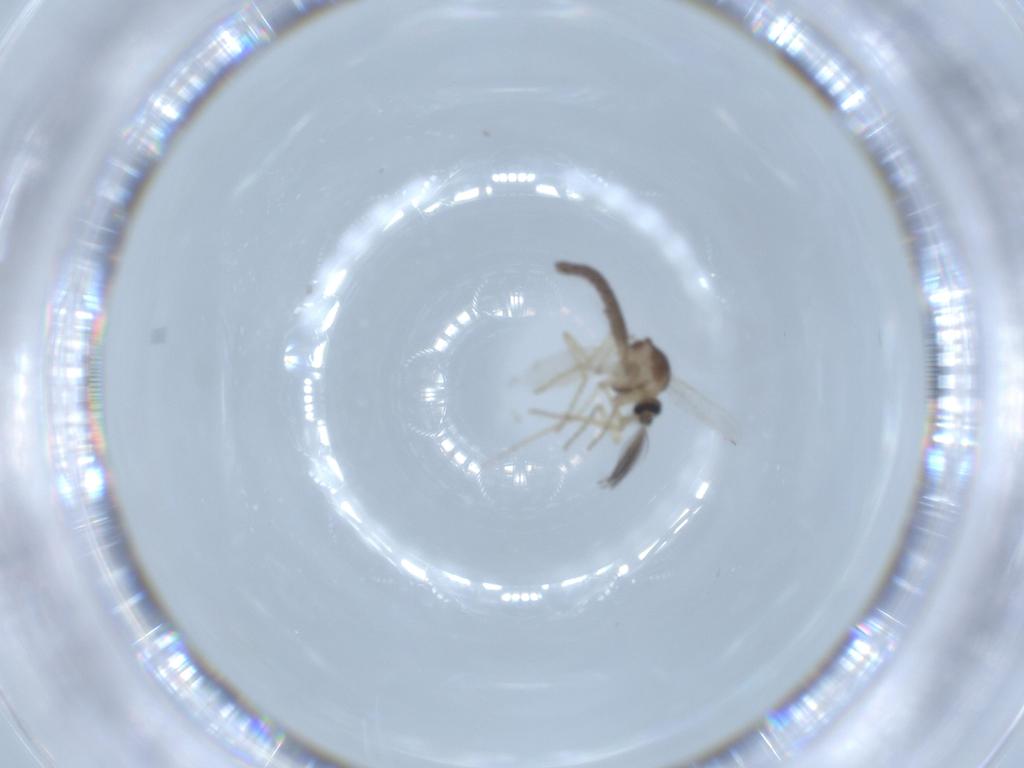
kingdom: Animalia
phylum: Arthropoda
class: Insecta
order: Diptera
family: Ceratopogonidae
